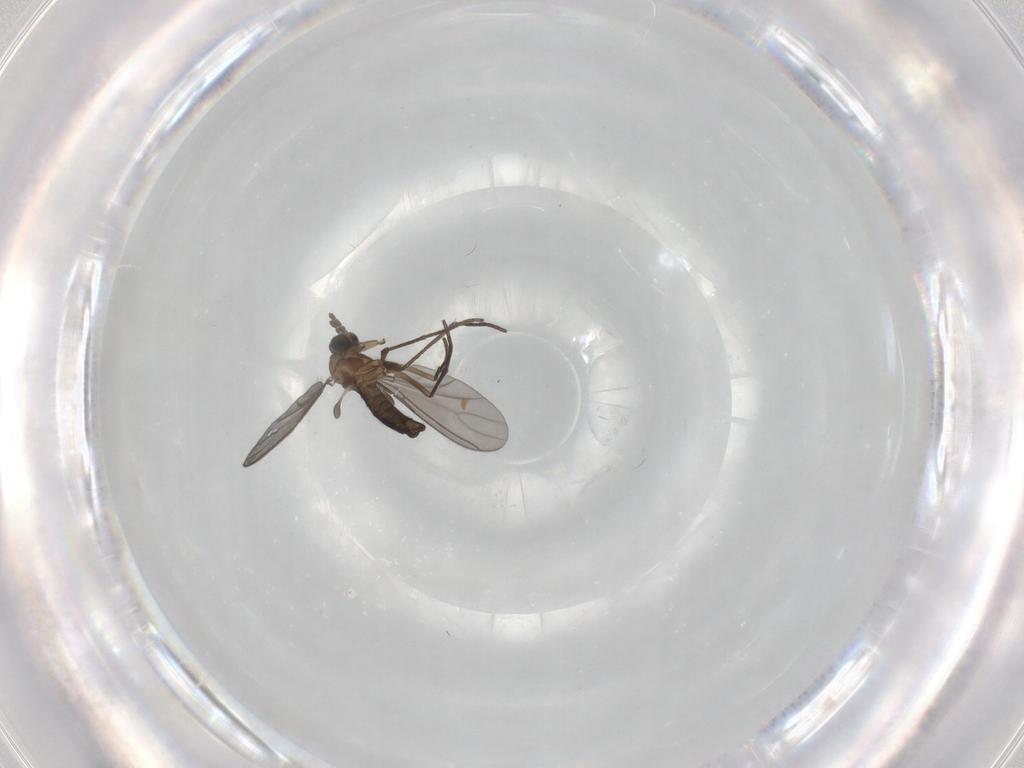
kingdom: Animalia
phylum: Arthropoda
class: Insecta
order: Diptera
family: Sciaridae
